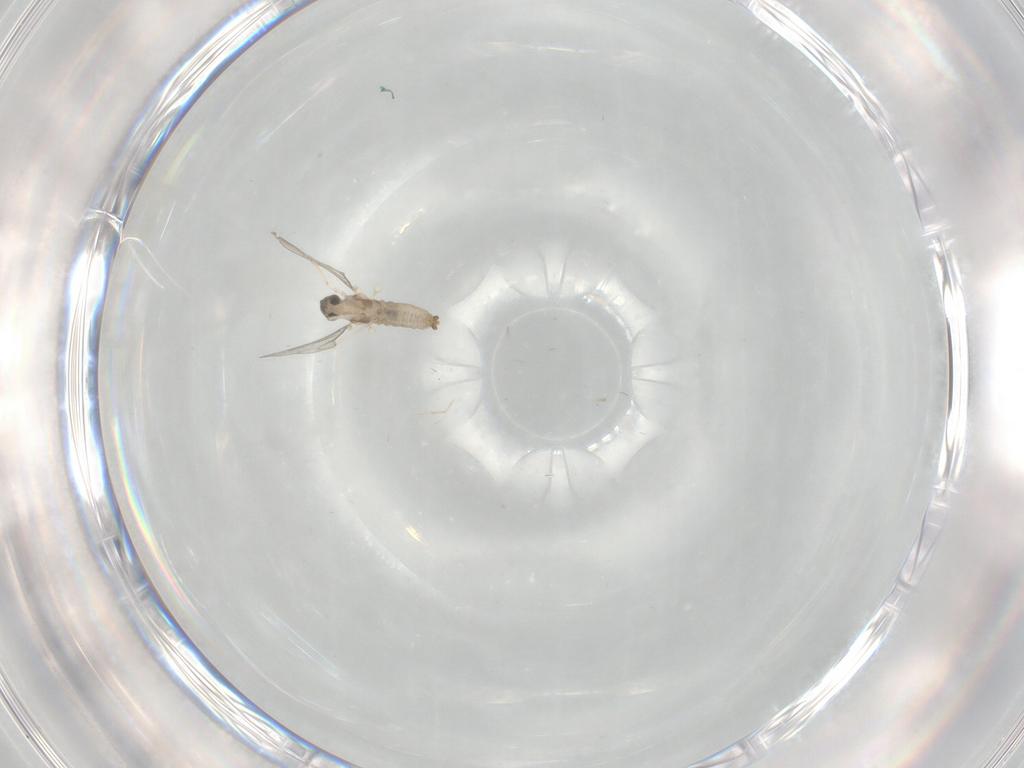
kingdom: Animalia
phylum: Arthropoda
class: Insecta
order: Diptera
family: Cecidomyiidae
